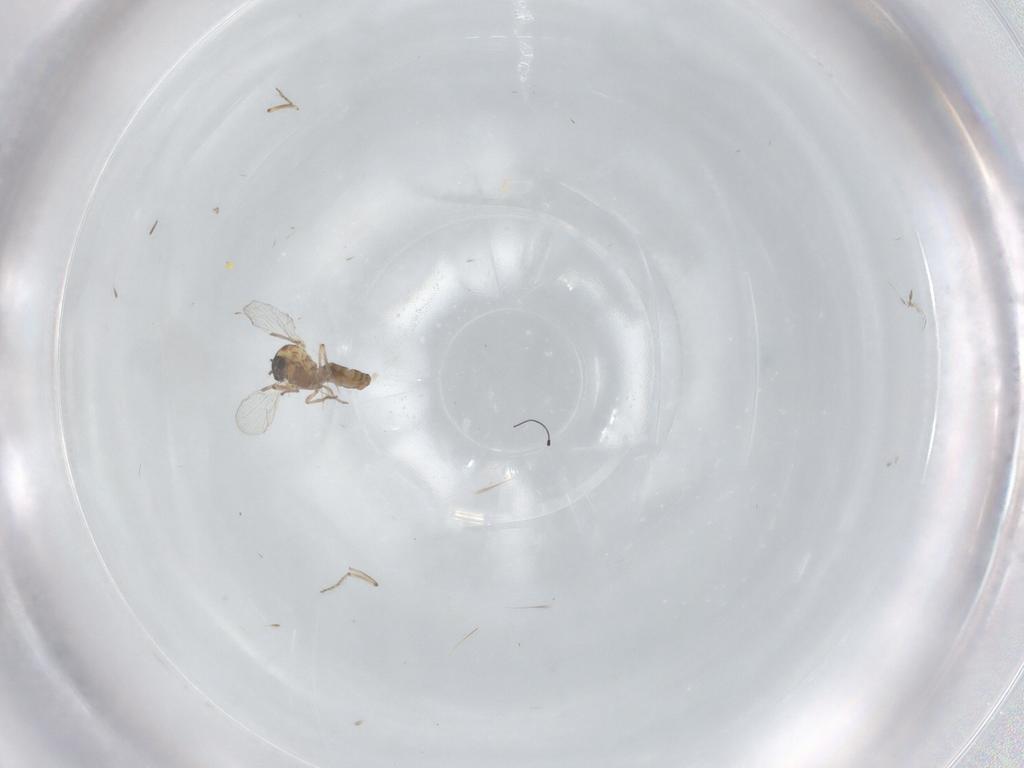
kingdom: Animalia
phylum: Arthropoda
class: Insecta
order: Diptera
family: Ceratopogonidae
